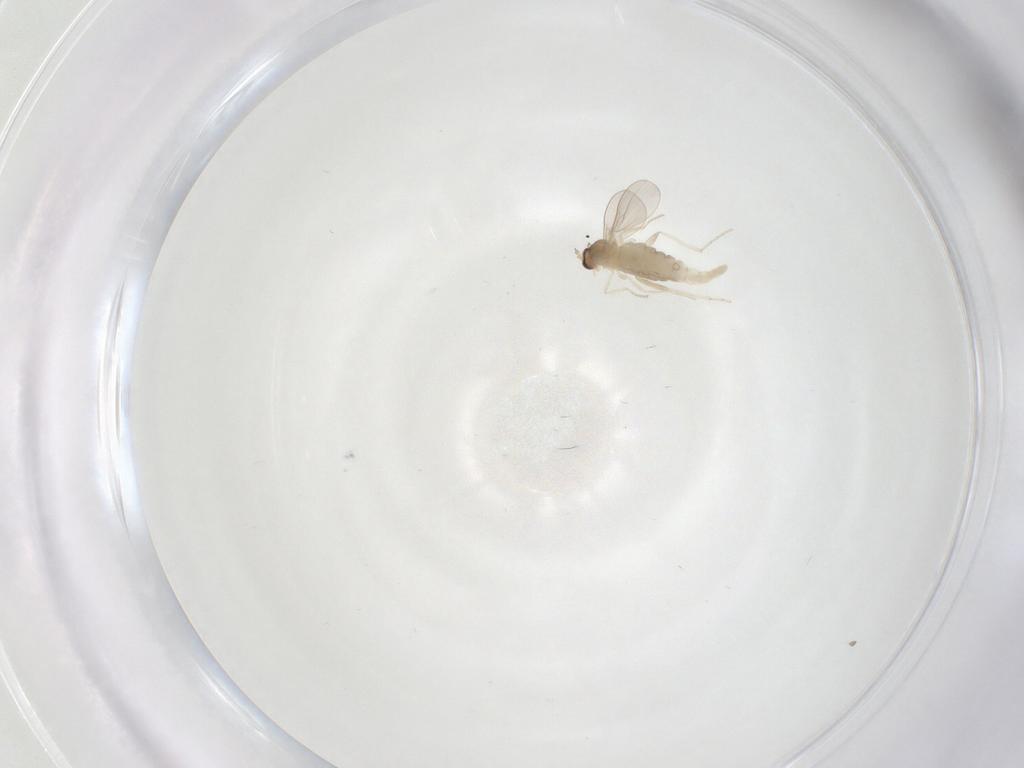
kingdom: Animalia
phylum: Arthropoda
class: Insecta
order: Diptera
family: Cecidomyiidae
